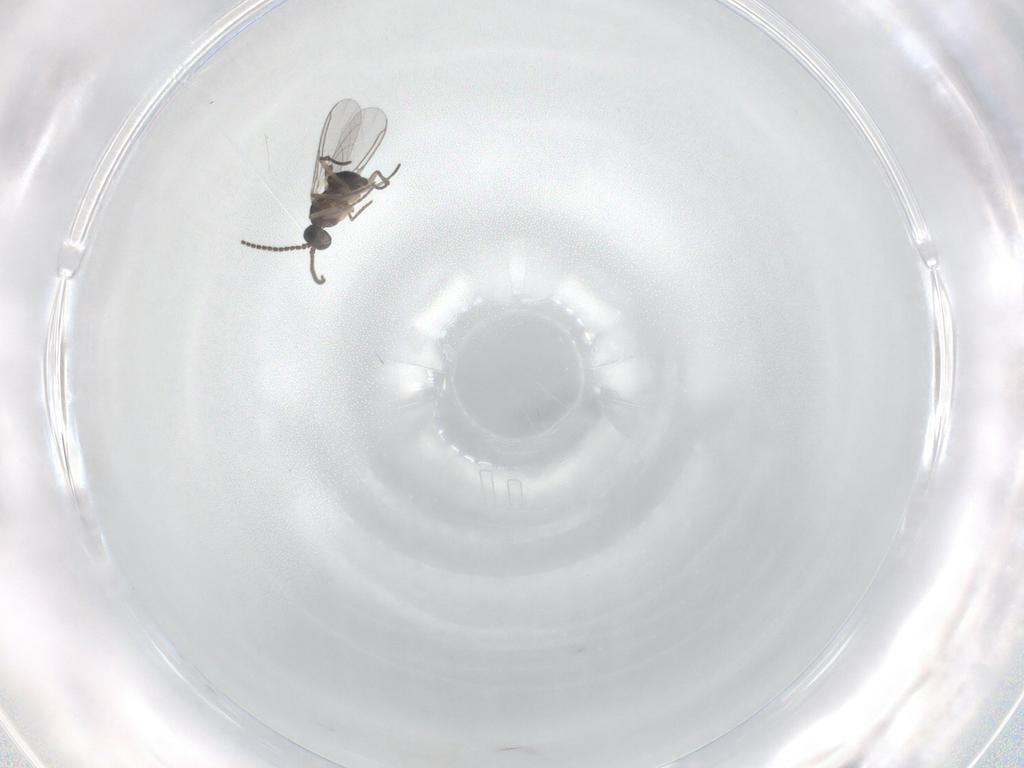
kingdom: Animalia
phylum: Arthropoda
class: Insecta
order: Diptera
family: Sciaridae
